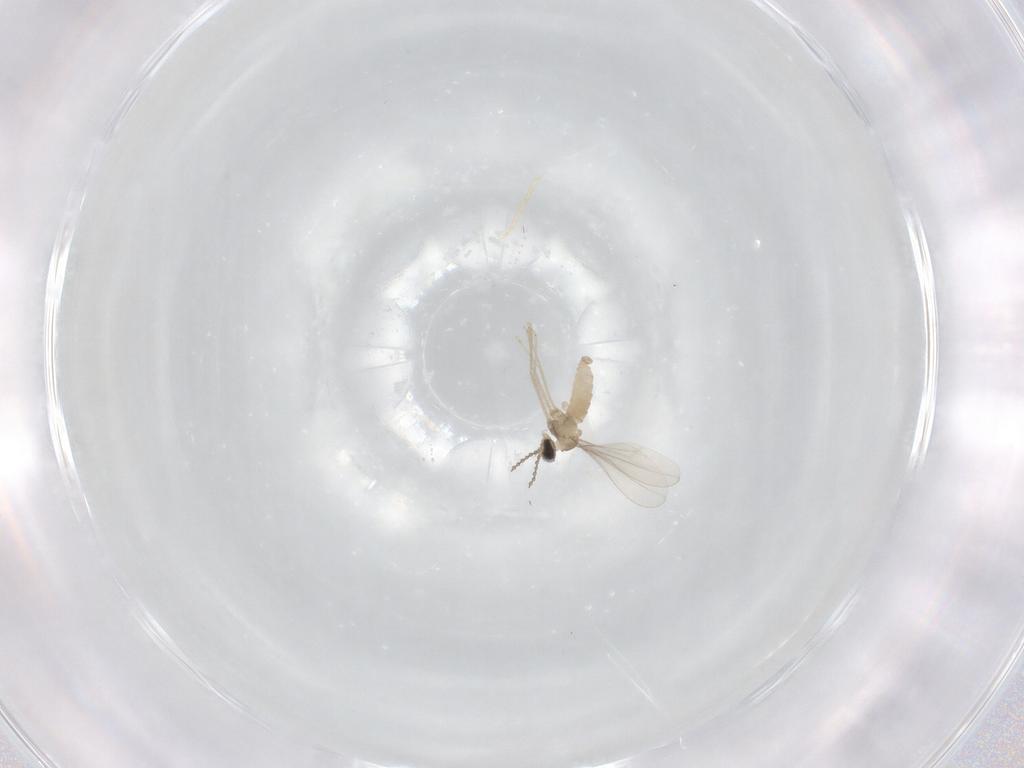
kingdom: Animalia
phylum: Arthropoda
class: Insecta
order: Diptera
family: Cecidomyiidae
